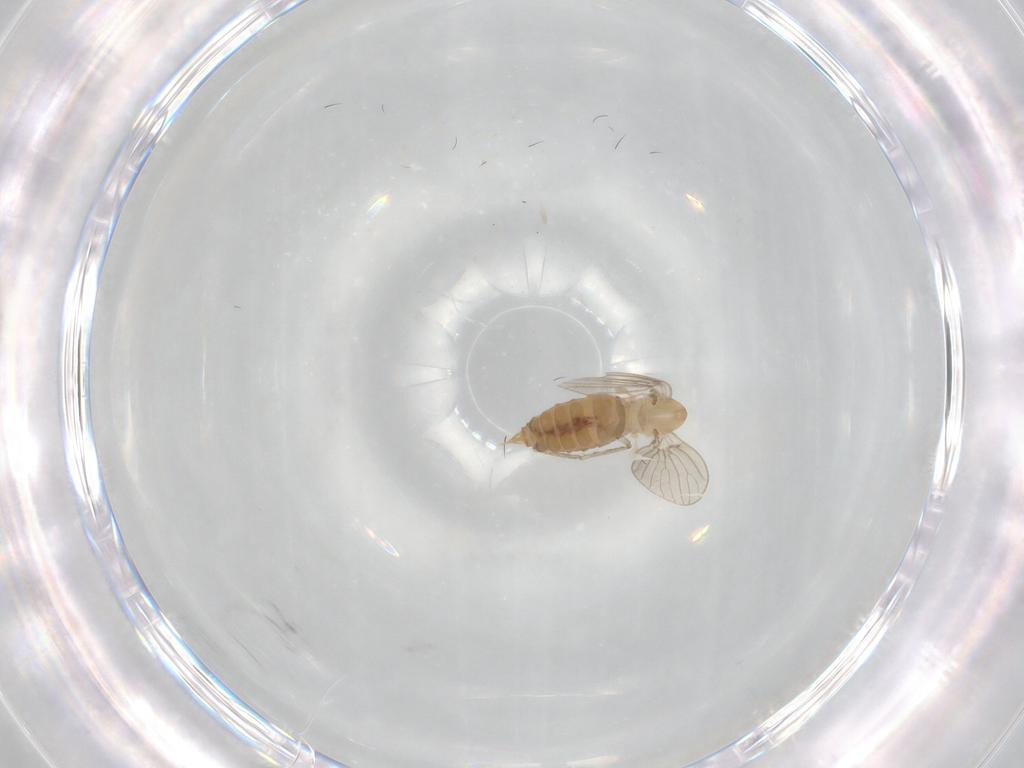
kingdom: Animalia
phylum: Arthropoda
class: Insecta
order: Diptera
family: Psychodidae
